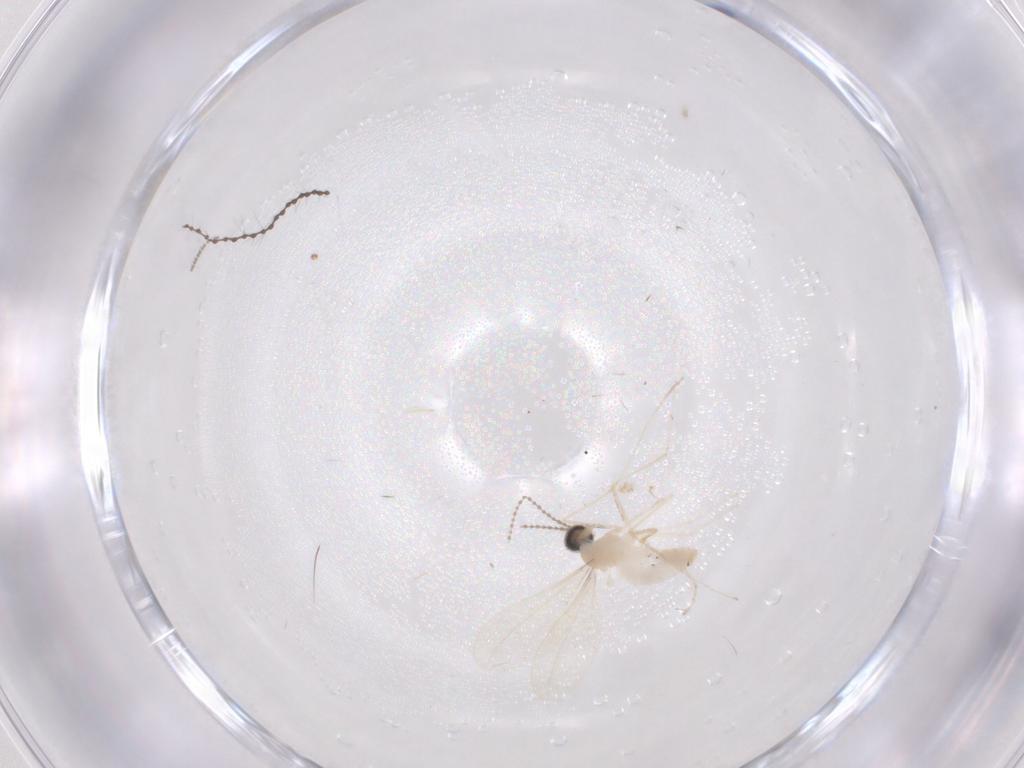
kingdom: Animalia
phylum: Arthropoda
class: Insecta
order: Diptera
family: Cecidomyiidae
